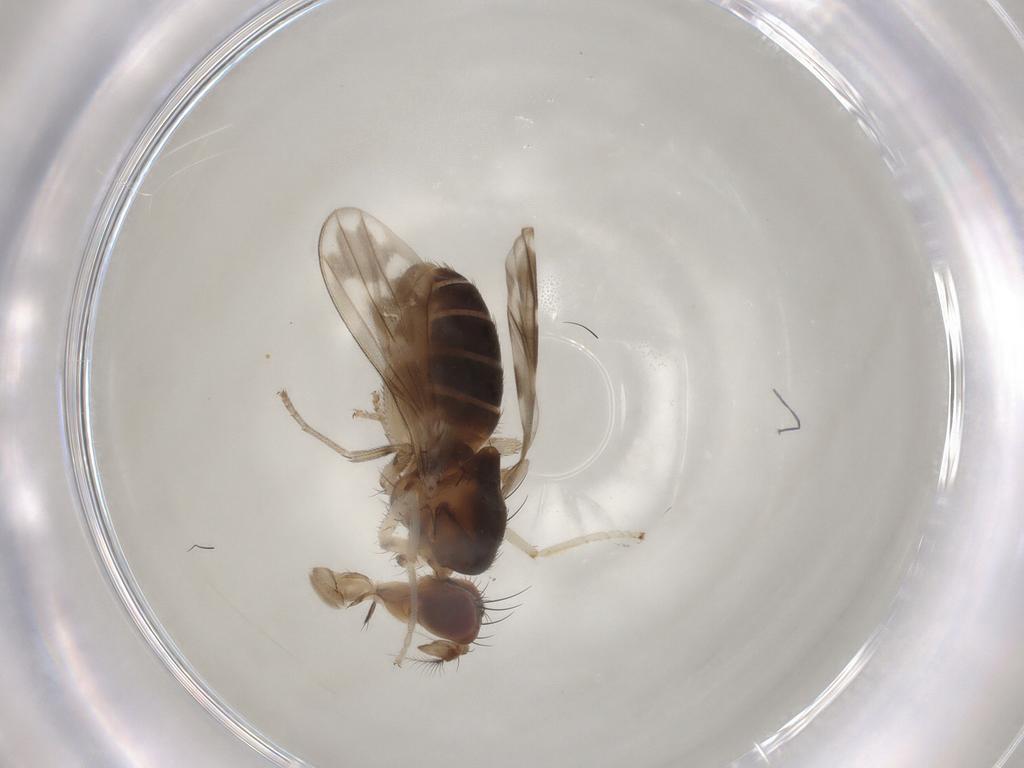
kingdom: Animalia
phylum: Arthropoda
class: Insecta
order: Diptera
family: Lauxaniidae
